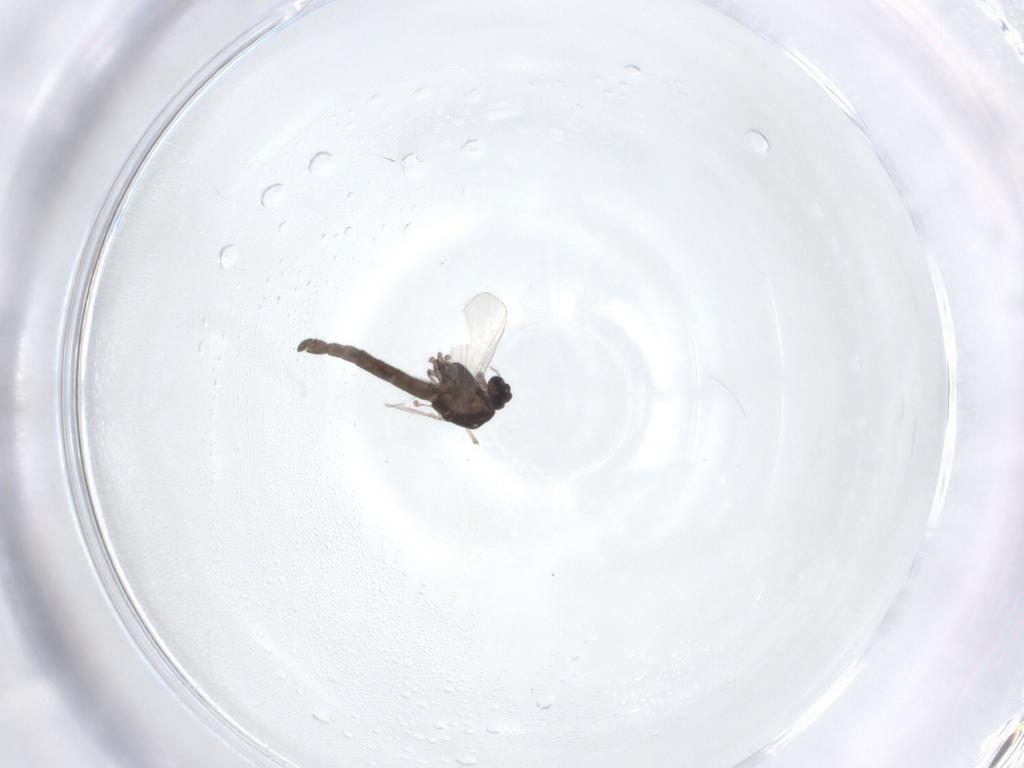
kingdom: Animalia
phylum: Arthropoda
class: Insecta
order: Diptera
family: Chironomidae
